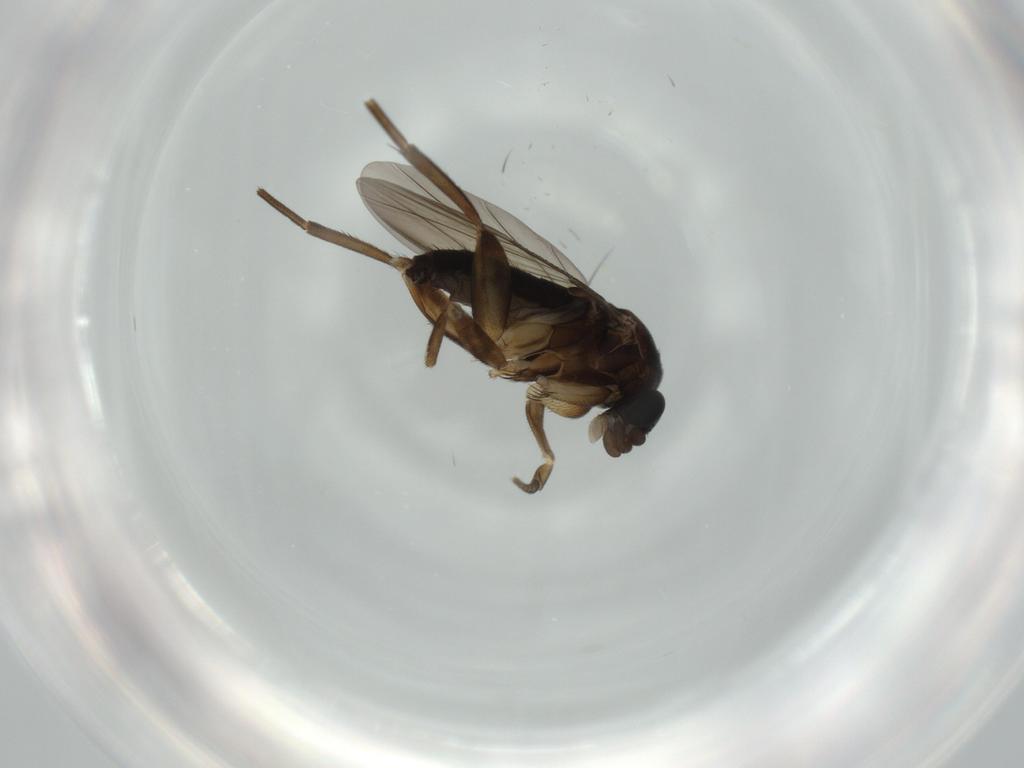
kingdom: Animalia
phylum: Arthropoda
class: Insecta
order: Diptera
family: Phoridae
